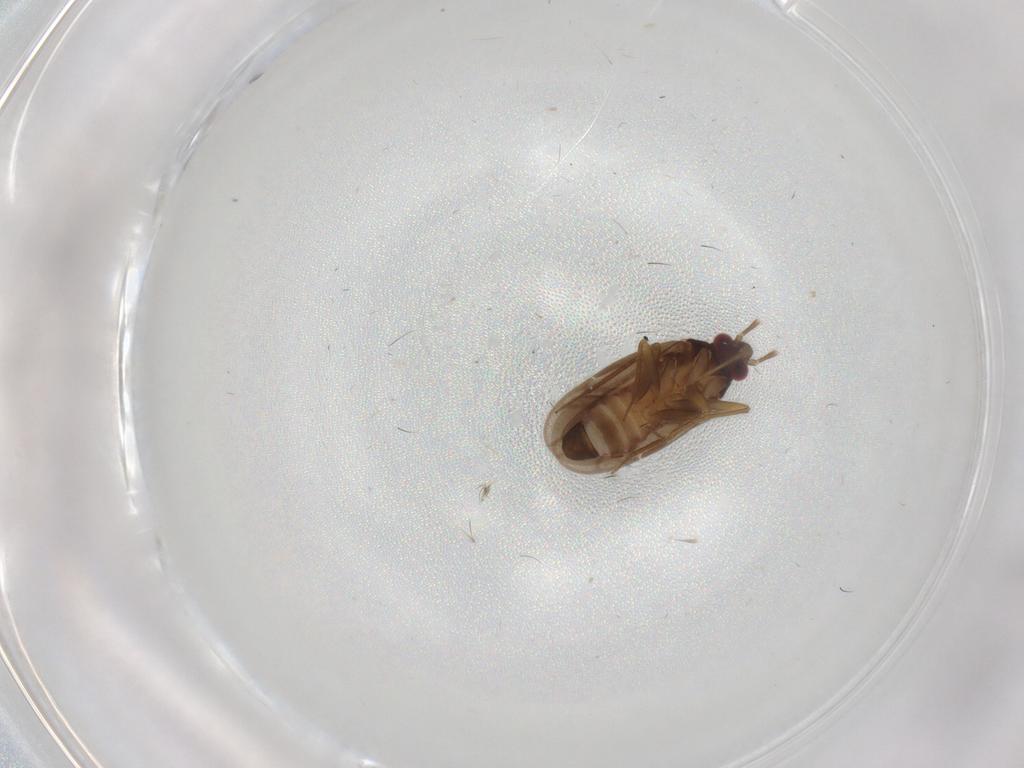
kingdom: Animalia
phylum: Arthropoda
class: Insecta
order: Hemiptera
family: Ceratocombidae
